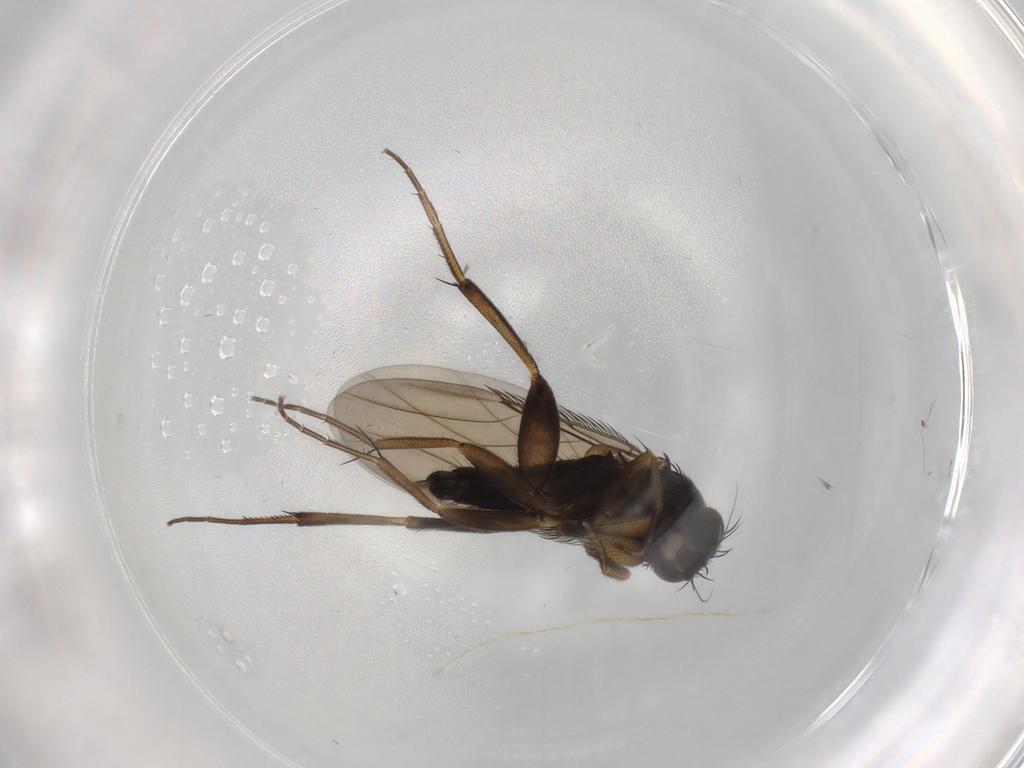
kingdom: Animalia
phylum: Arthropoda
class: Insecta
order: Diptera
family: Phoridae
